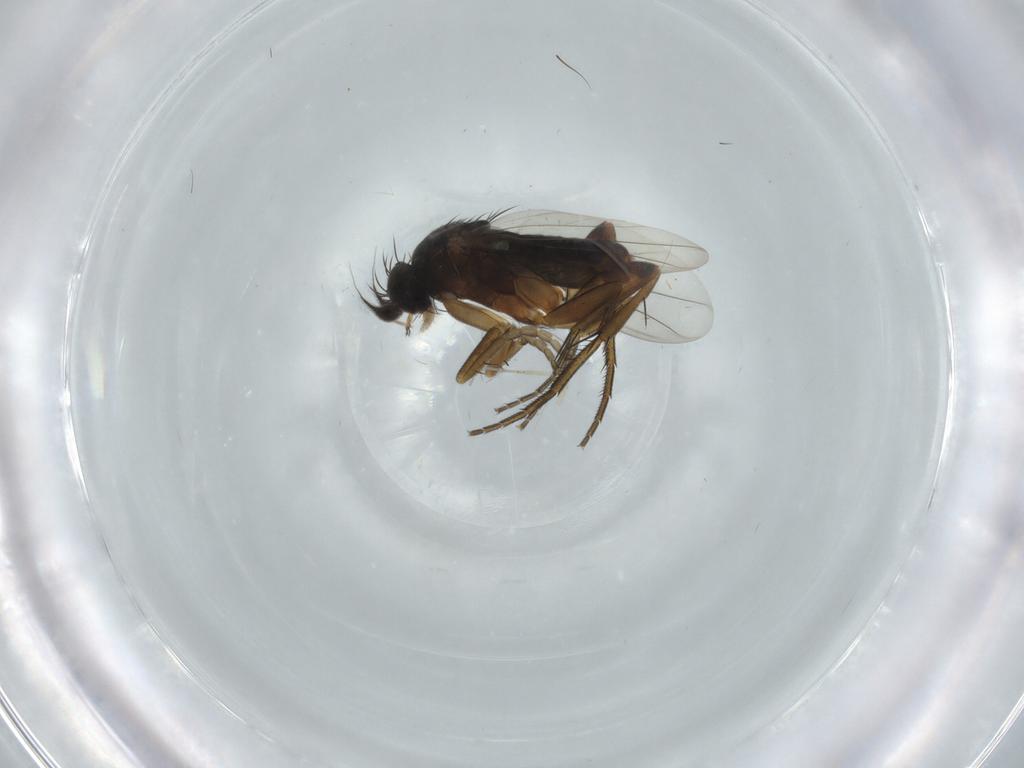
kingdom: Animalia
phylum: Arthropoda
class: Insecta
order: Diptera
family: Phoridae
